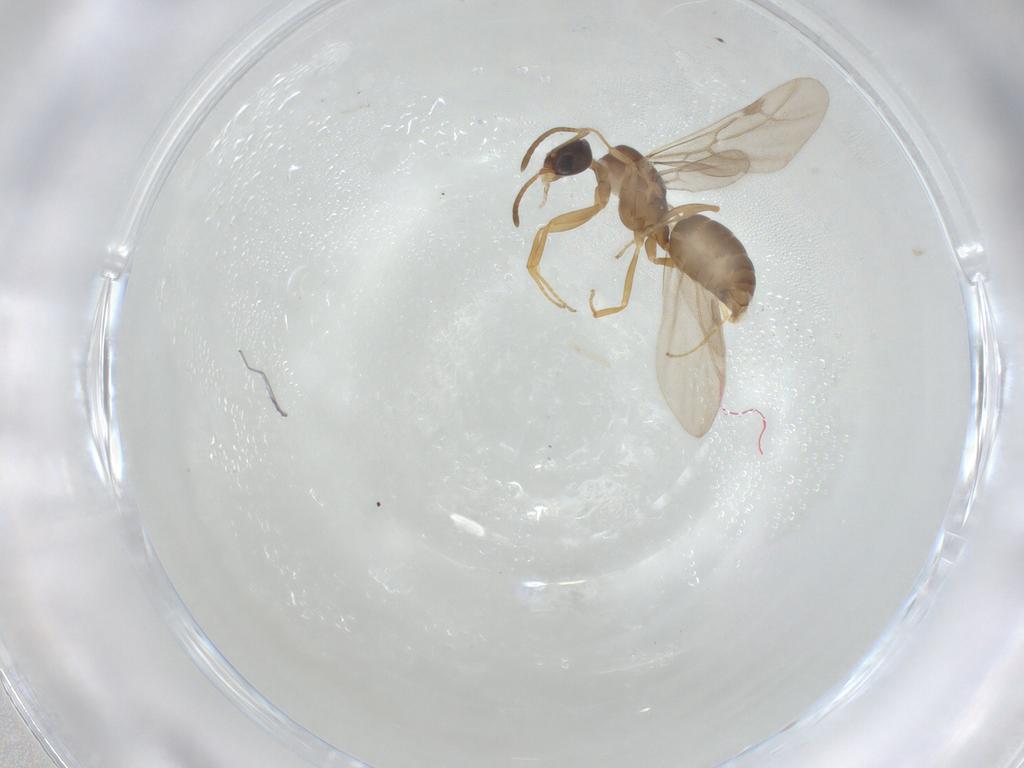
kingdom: Animalia
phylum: Arthropoda
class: Insecta
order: Hymenoptera
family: Formicidae
